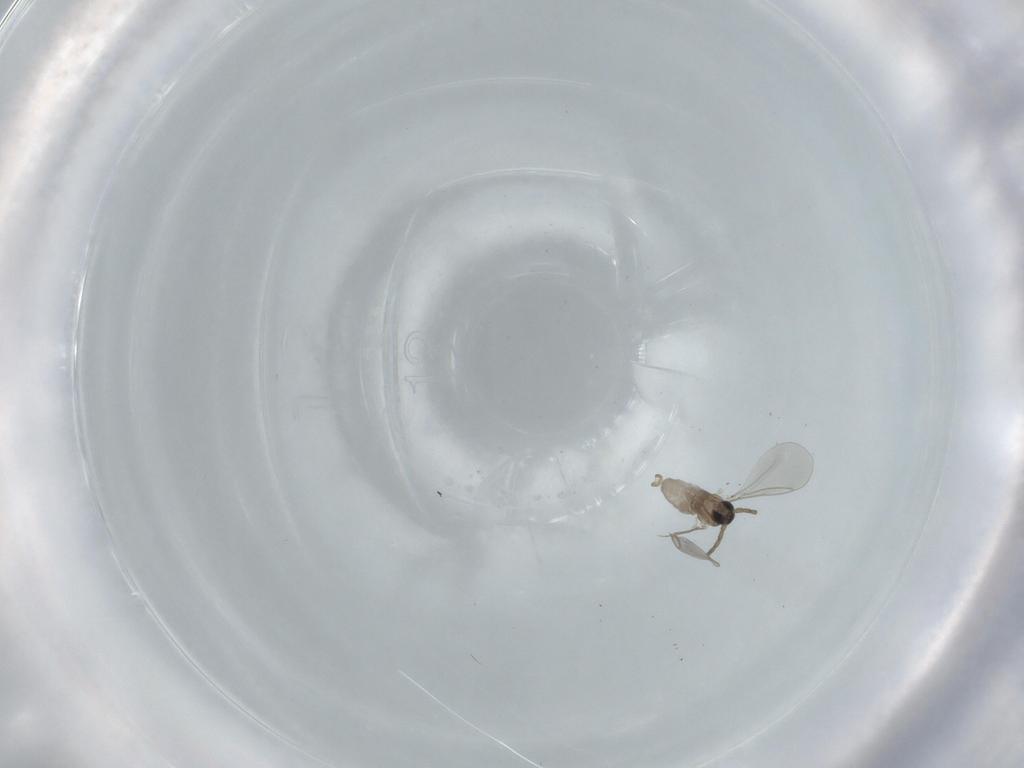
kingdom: Animalia
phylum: Arthropoda
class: Insecta
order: Diptera
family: Cecidomyiidae
